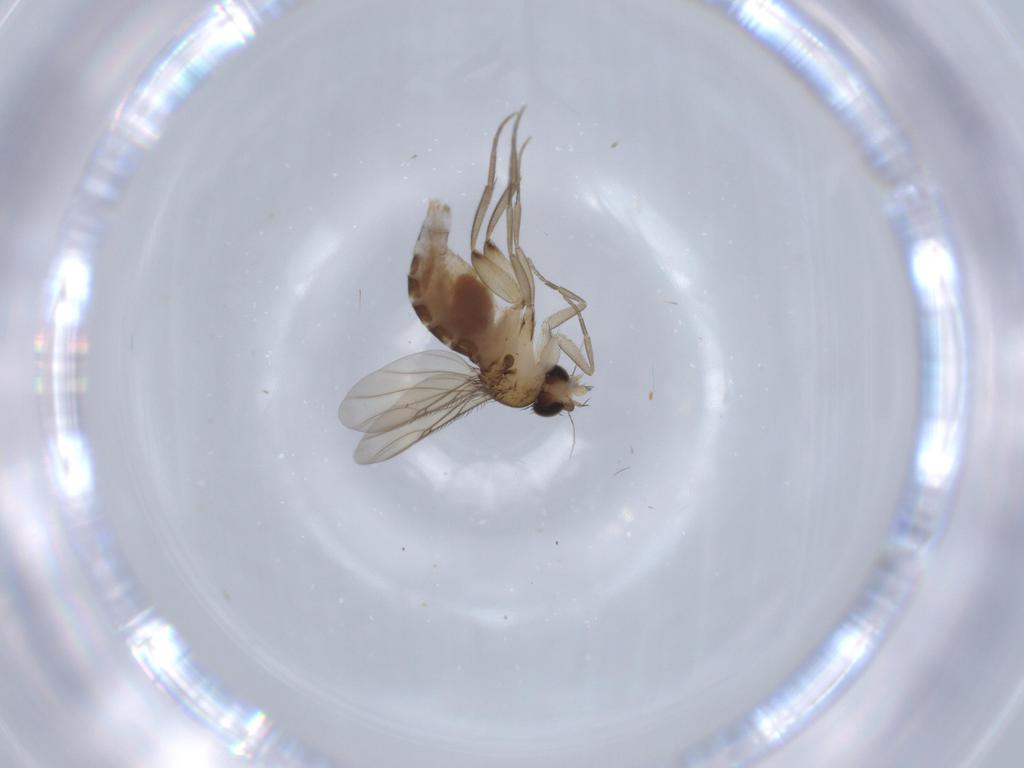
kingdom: Animalia
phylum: Arthropoda
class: Insecta
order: Diptera
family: Phoridae
